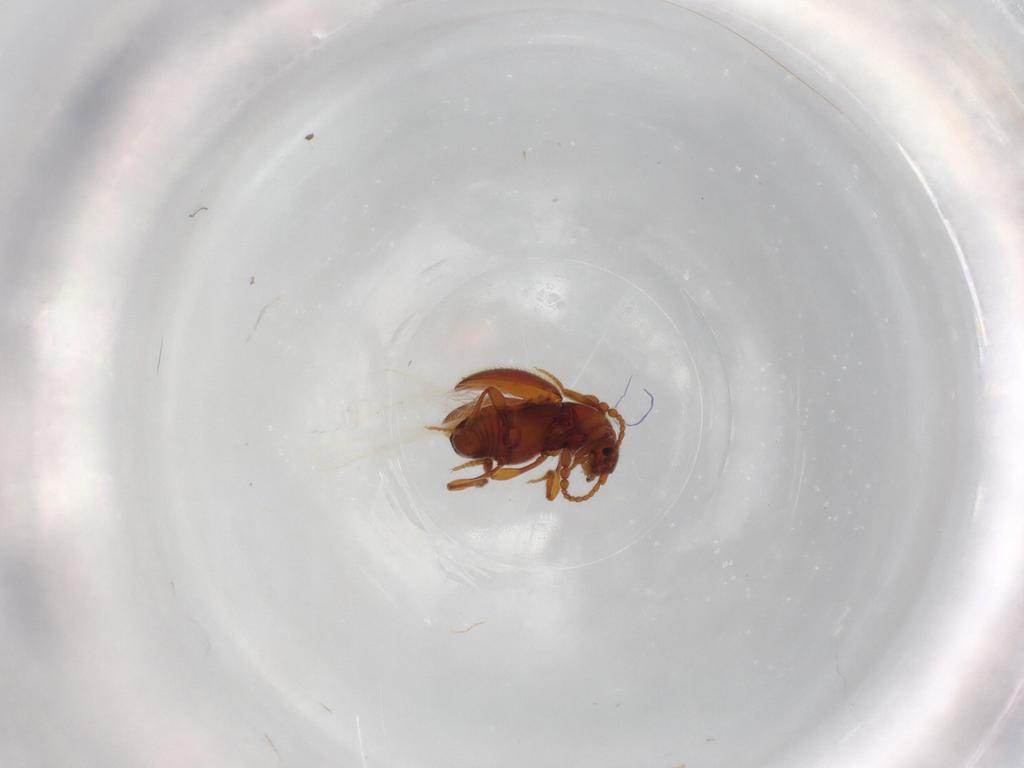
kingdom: Animalia
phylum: Arthropoda
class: Insecta
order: Coleoptera
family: Staphylinidae
